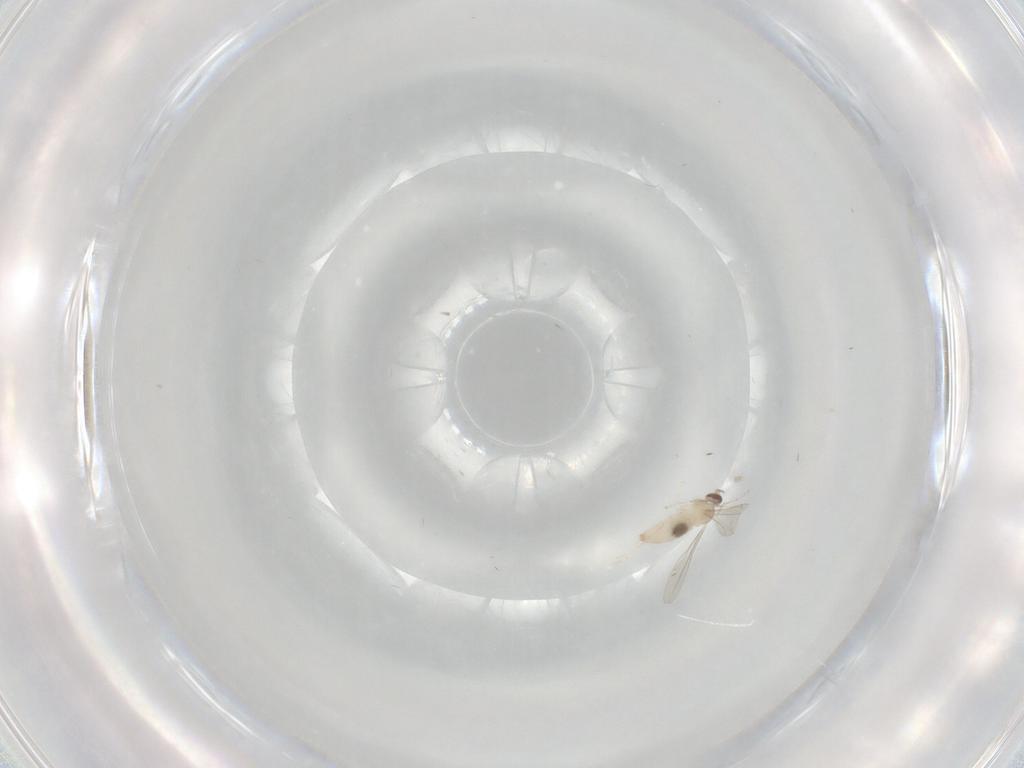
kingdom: Animalia
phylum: Arthropoda
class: Insecta
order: Diptera
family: Cecidomyiidae
